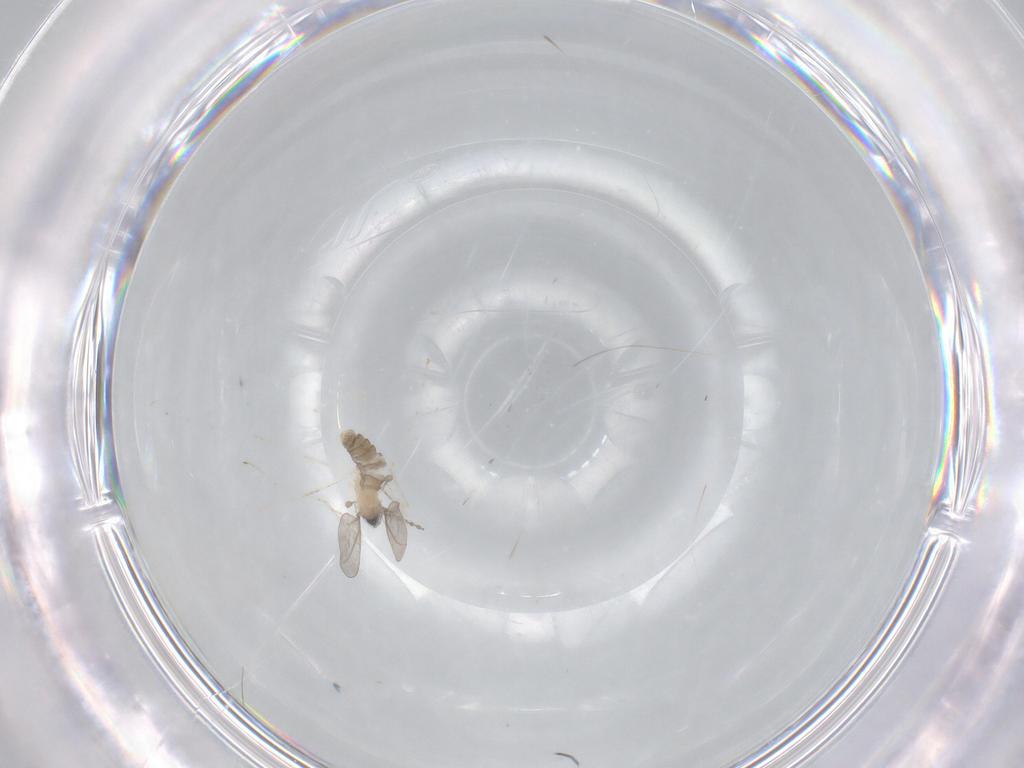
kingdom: Animalia
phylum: Arthropoda
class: Insecta
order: Diptera
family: Cecidomyiidae
